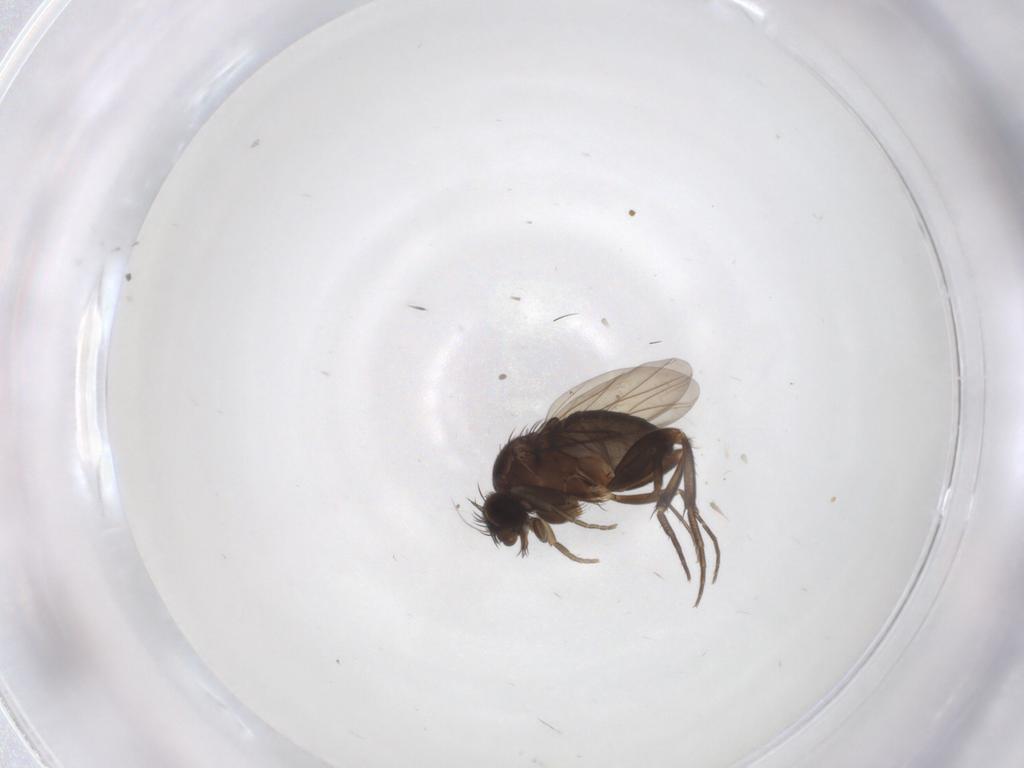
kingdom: Animalia
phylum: Arthropoda
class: Insecta
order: Diptera
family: Phoridae
